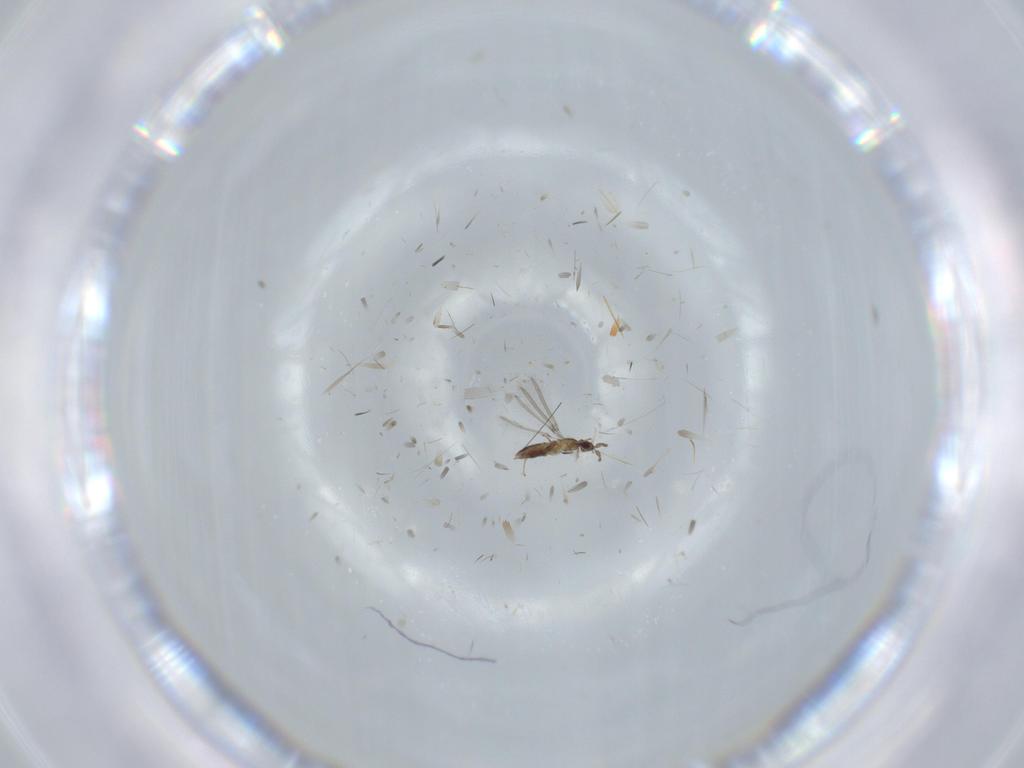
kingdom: Animalia
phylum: Arthropoda
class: Insecta
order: Hymenoptera
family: Mymaridae
